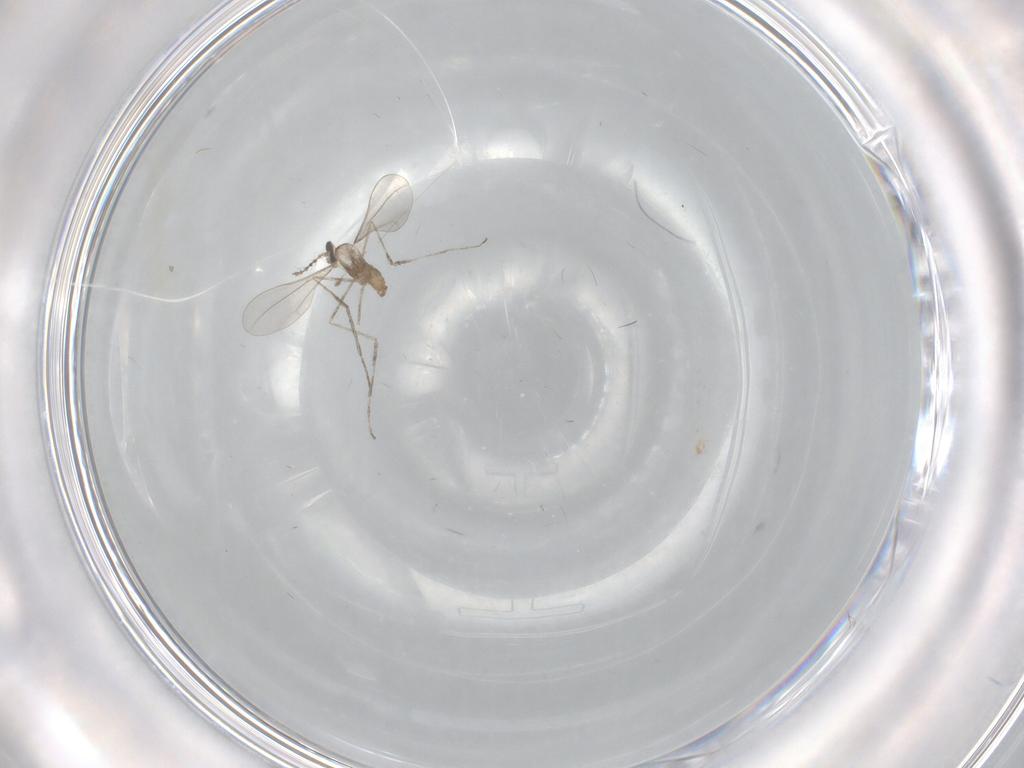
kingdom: Animalia
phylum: Arthropoda
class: Insecta
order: Diptera
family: Cecidomyiidae
